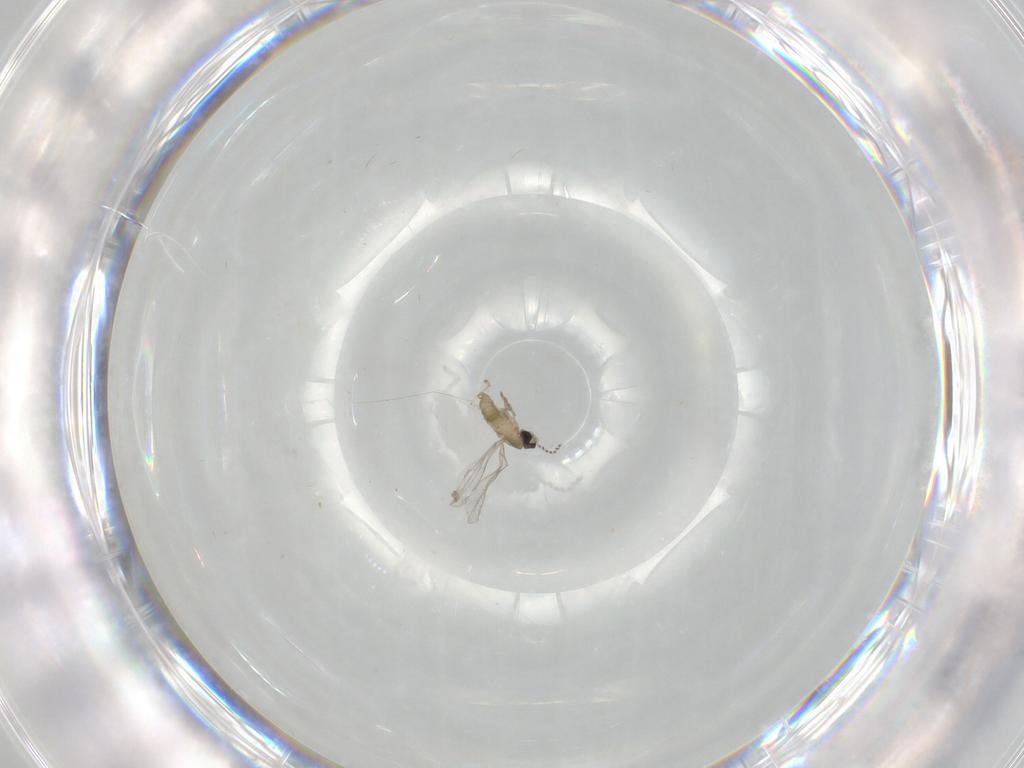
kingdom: Animalia
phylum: Arthropoda
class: Insecta
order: Diptera
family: Cecidomyiidae
